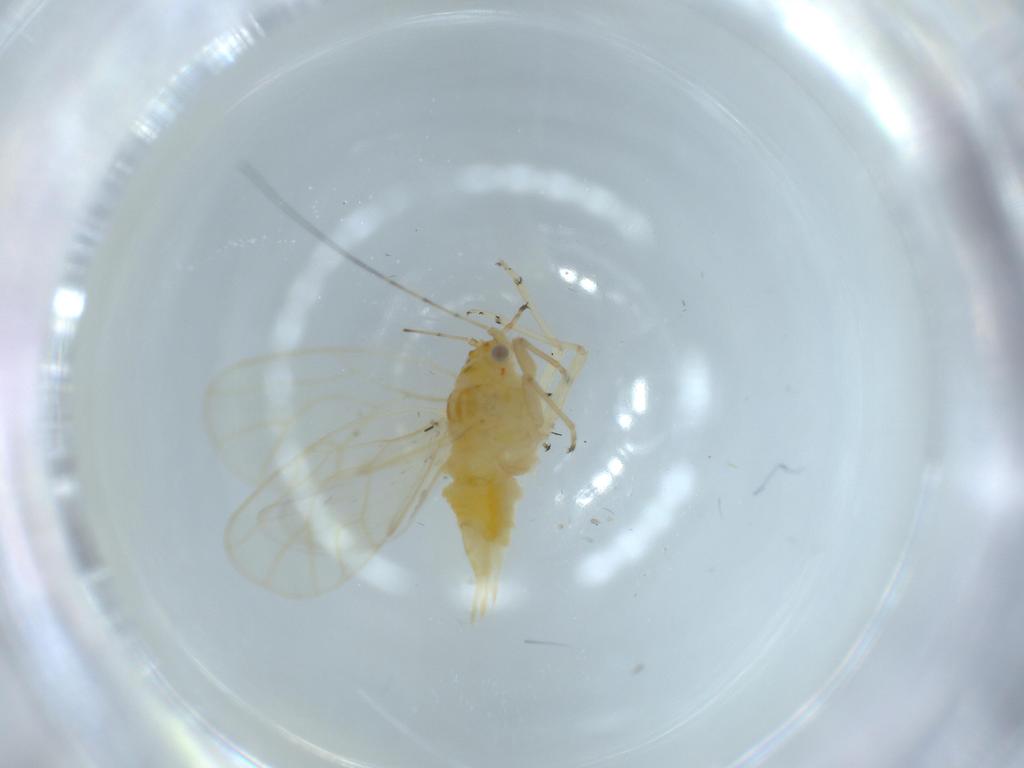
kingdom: Animalia
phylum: Arthropoda
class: Insecta
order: Hemiptera
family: Psyllidae
